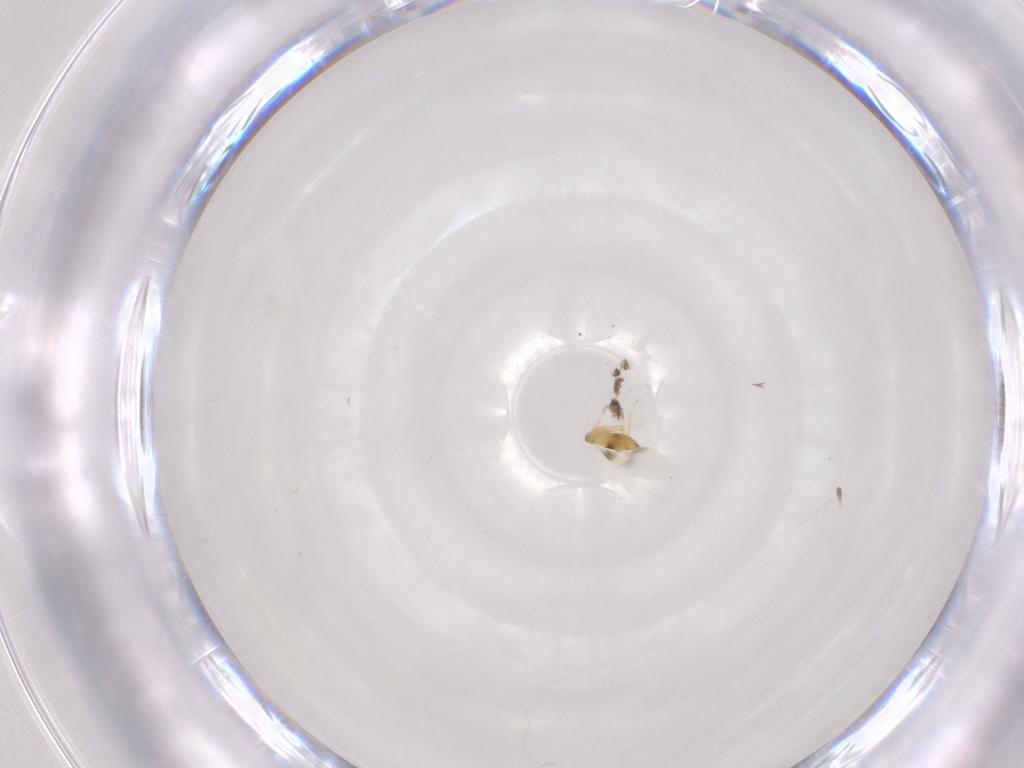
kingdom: Animalia
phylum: Arthropoda
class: Insecta
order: Hymenoptera
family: Signiphoridae
